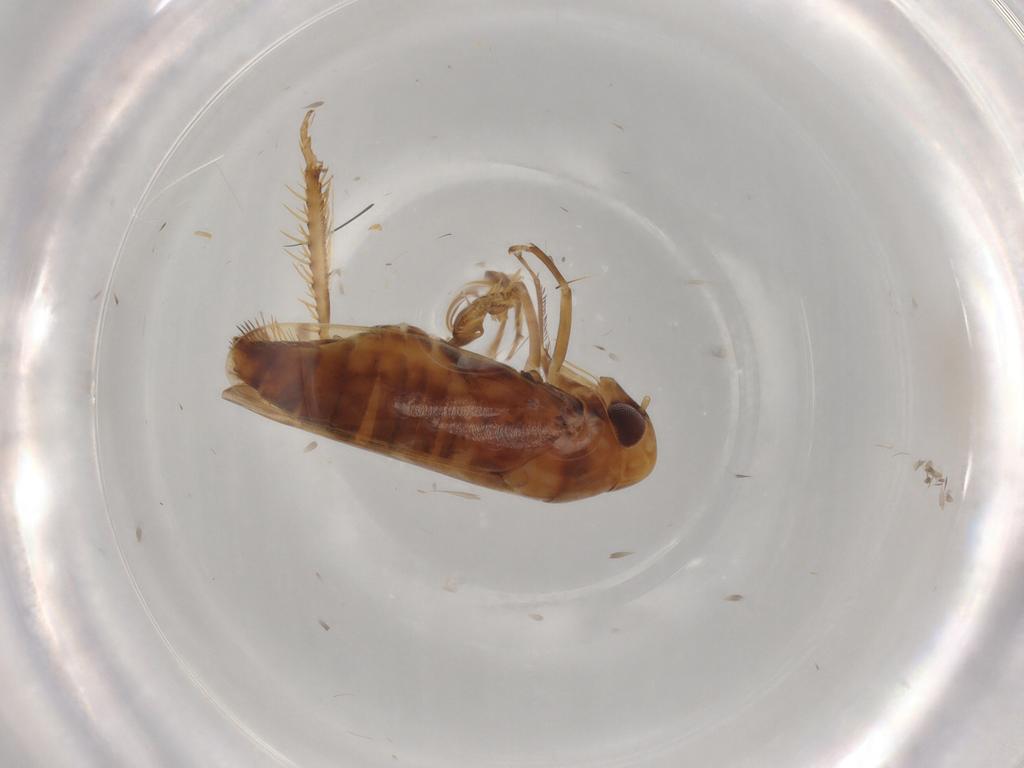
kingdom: Animalia
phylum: Arthropoda
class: Insecta
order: Hemiptera
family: Cicadellidae
